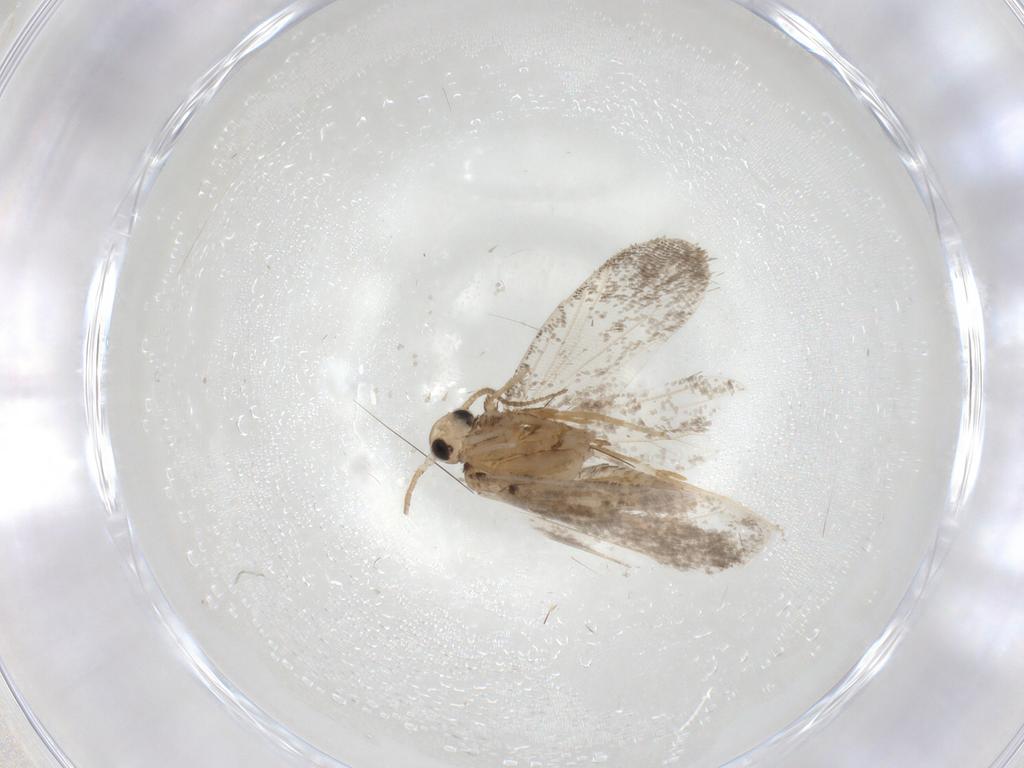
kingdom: Animalia
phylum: Arthropoda
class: Insecta
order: Lepidoptera
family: Psychidae
